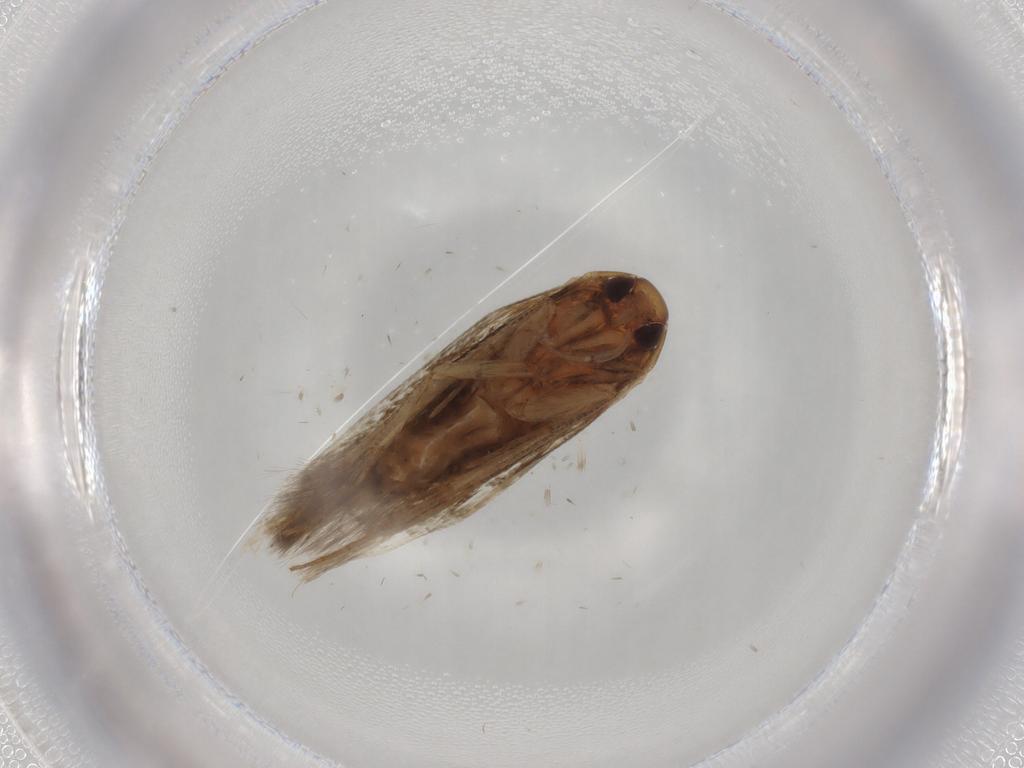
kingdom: Animalia
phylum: Arthropoda
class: Insecta
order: Lepidoptera
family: Cosmopterigidae
